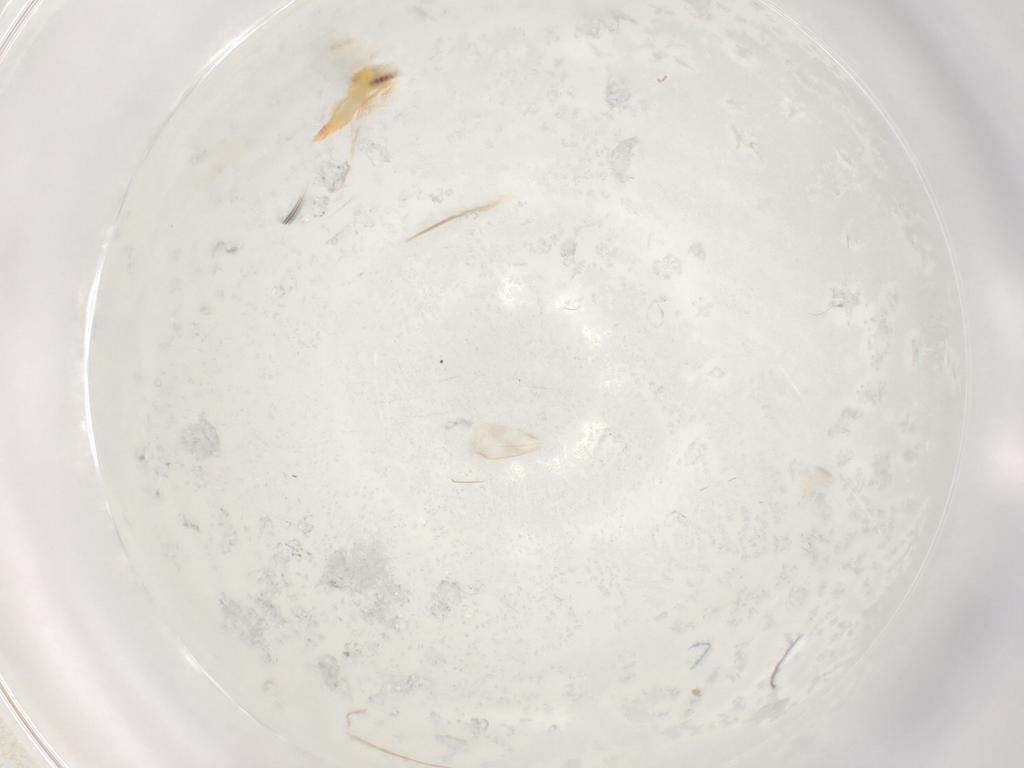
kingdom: Animalia
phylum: Arthropoda
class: Insecta
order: Hemiptera
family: Aleyrodidae
